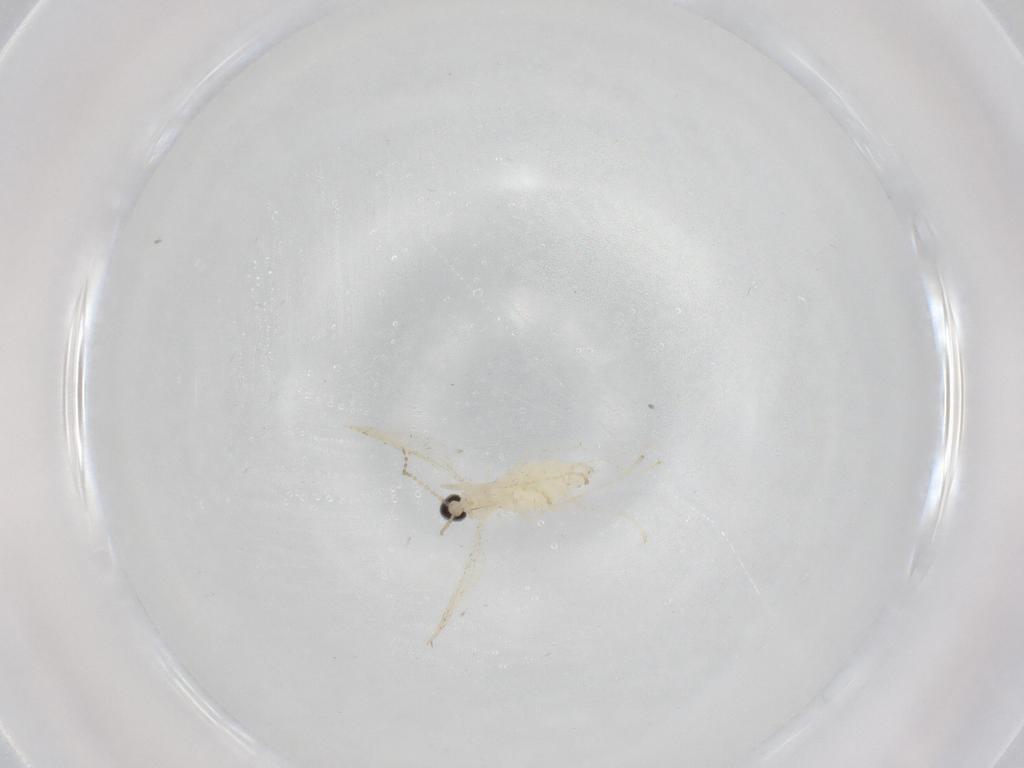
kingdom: Animalia
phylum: Arthropoda
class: Insecta
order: Diptera
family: Cecidomyiidae
